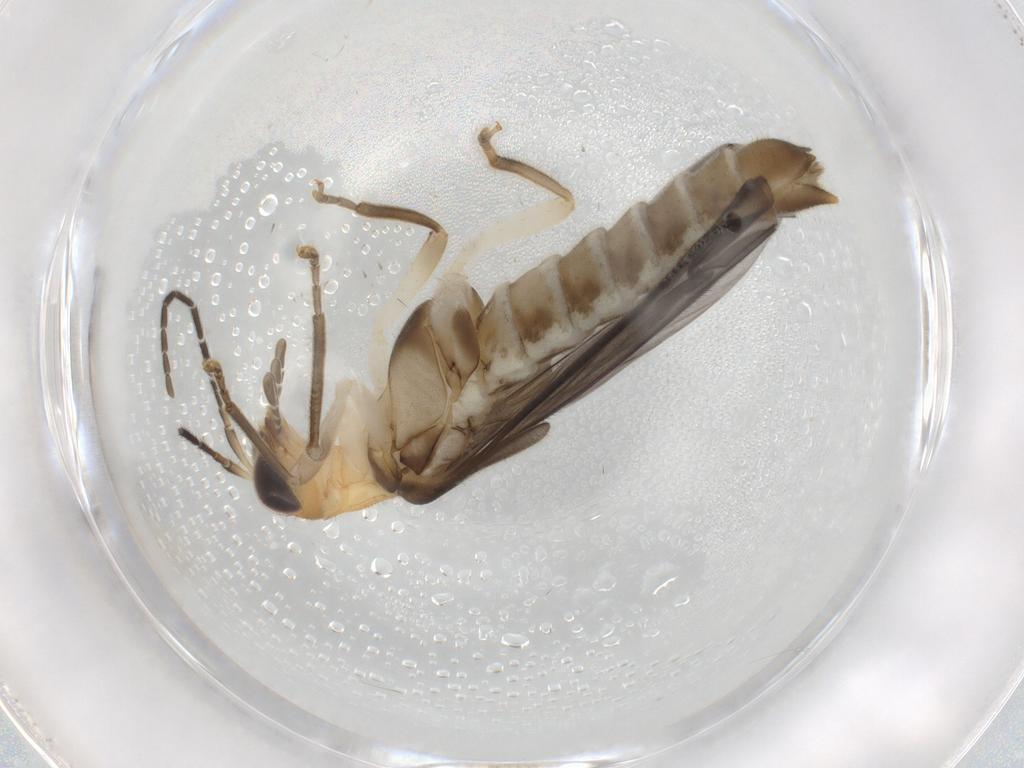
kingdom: Animalia
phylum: Arthropoda
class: Insecta
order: Coleoptera
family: Cantharidae
